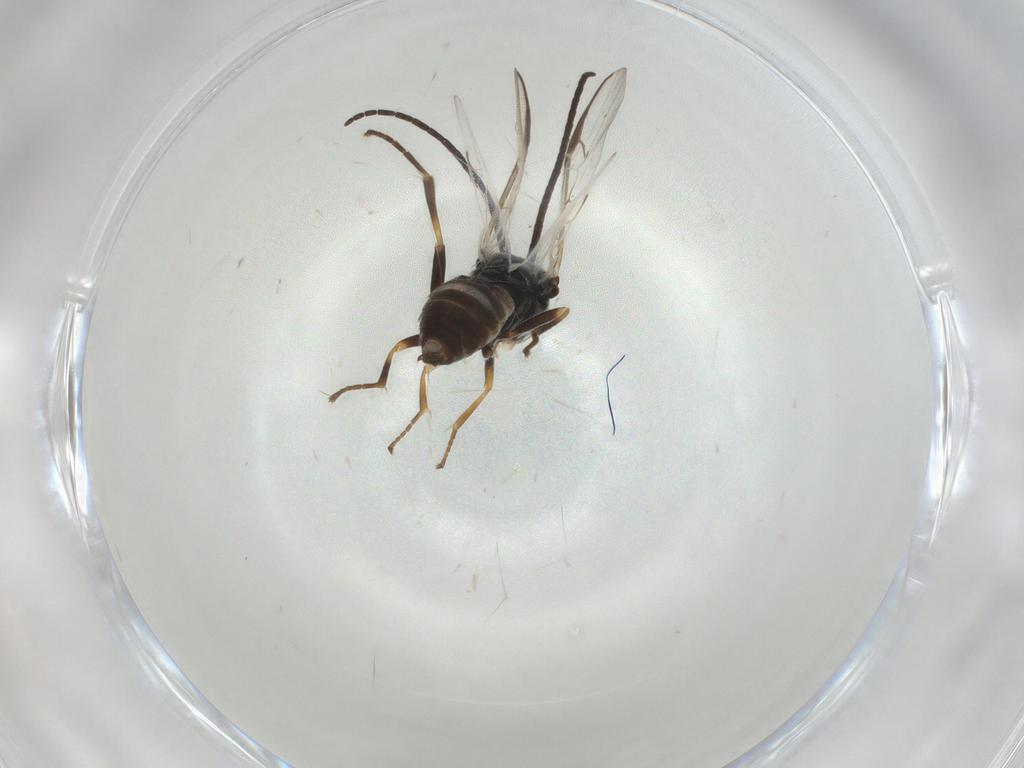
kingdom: Animalia
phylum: Arthropoda
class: Insecta
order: Hymenoptera
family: Braconidae
